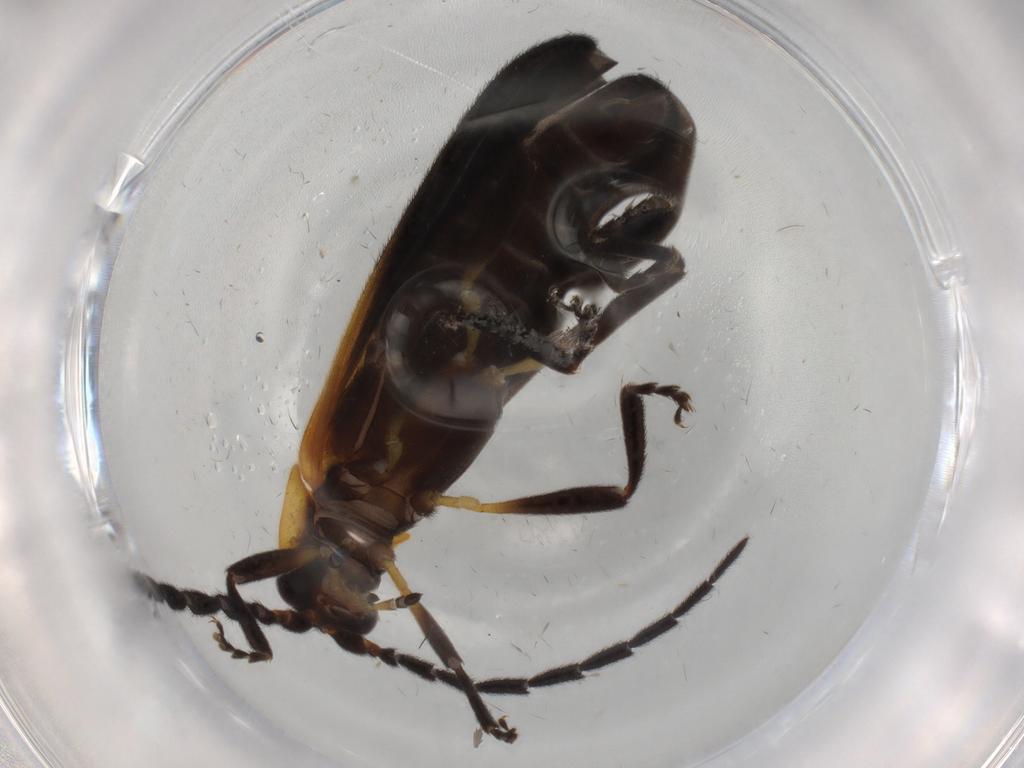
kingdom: Animalia
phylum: Arthropoda
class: Insecta
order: Coleoptera
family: Lycidae
